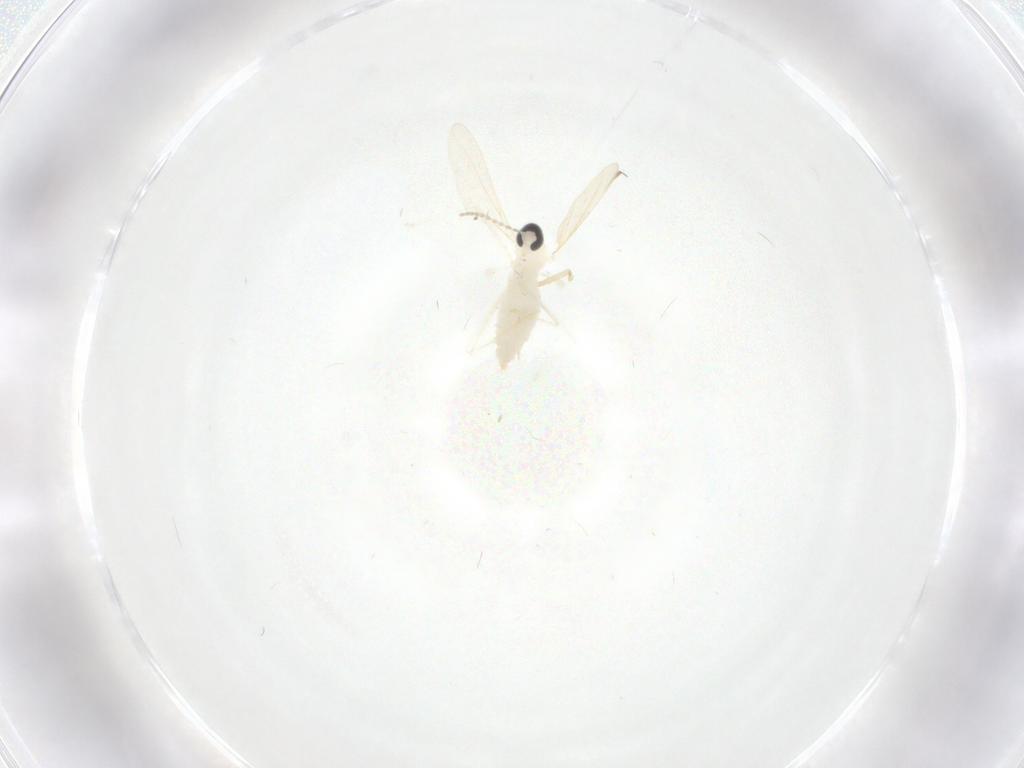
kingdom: Animalia
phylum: Arthropoda
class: Insecta
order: Diptera
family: Cecidomyiidae
